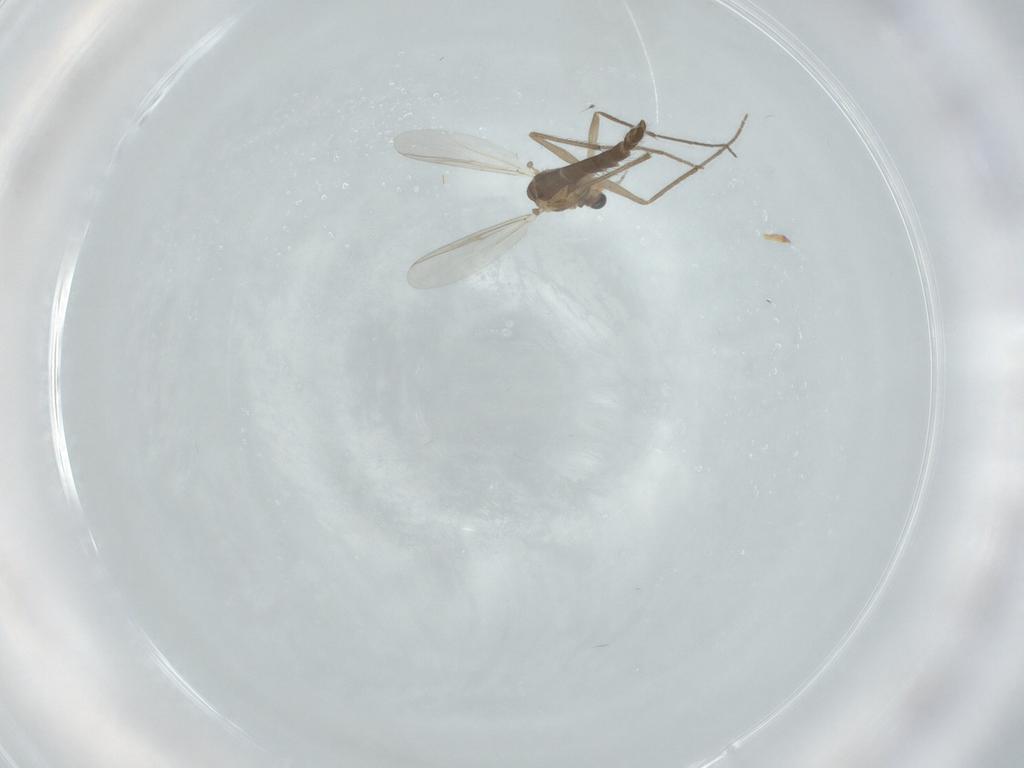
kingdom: Animalia
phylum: Arthropoda
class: Insecta
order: Diptera
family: Chironomidae
